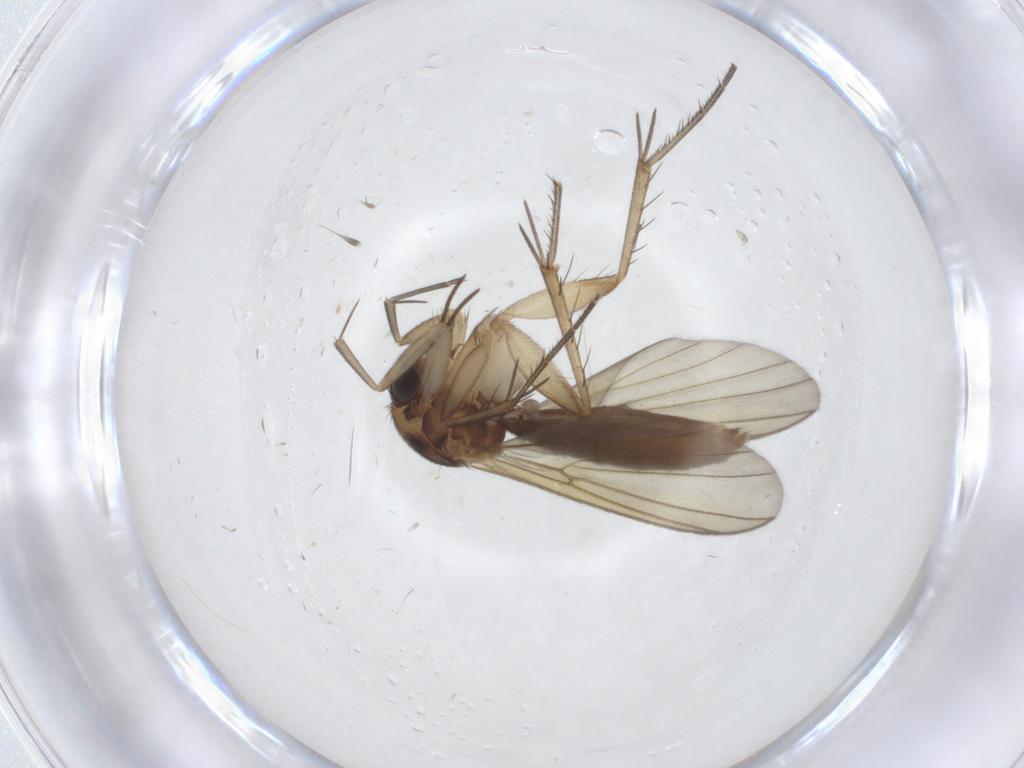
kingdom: Animalia
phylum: Arthropoda
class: Insecta
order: Diptera
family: Mycetophilidae
